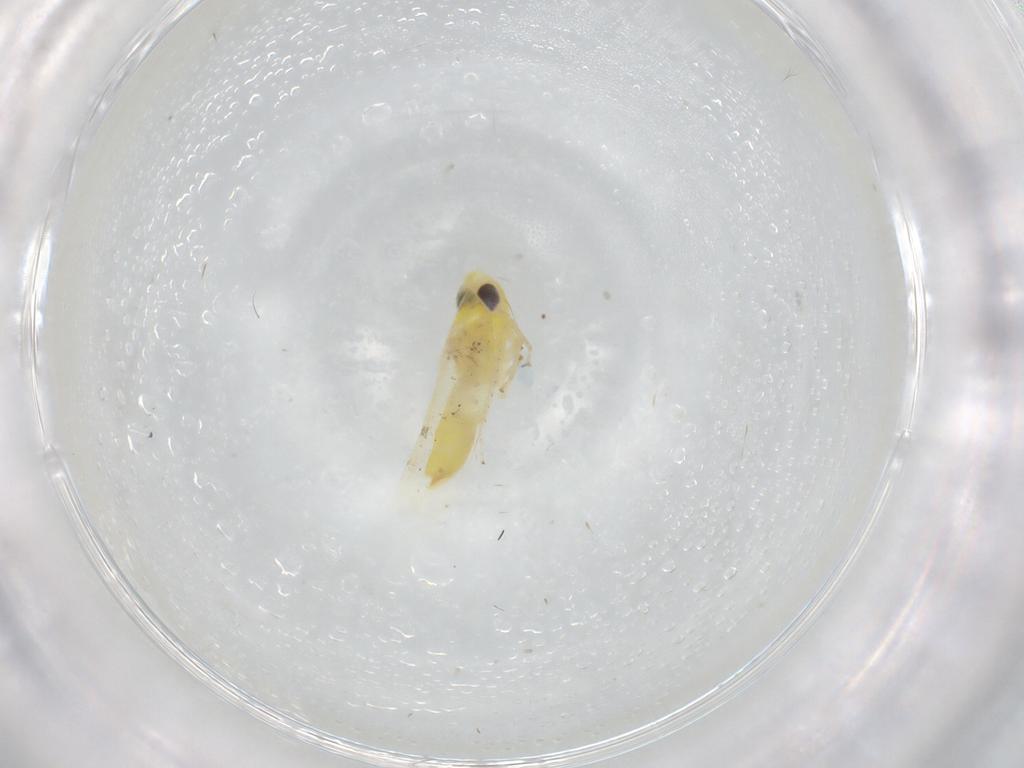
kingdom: Animalia
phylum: Arthropoda
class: Insecta
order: Hemiptera
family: Cicadellidae
